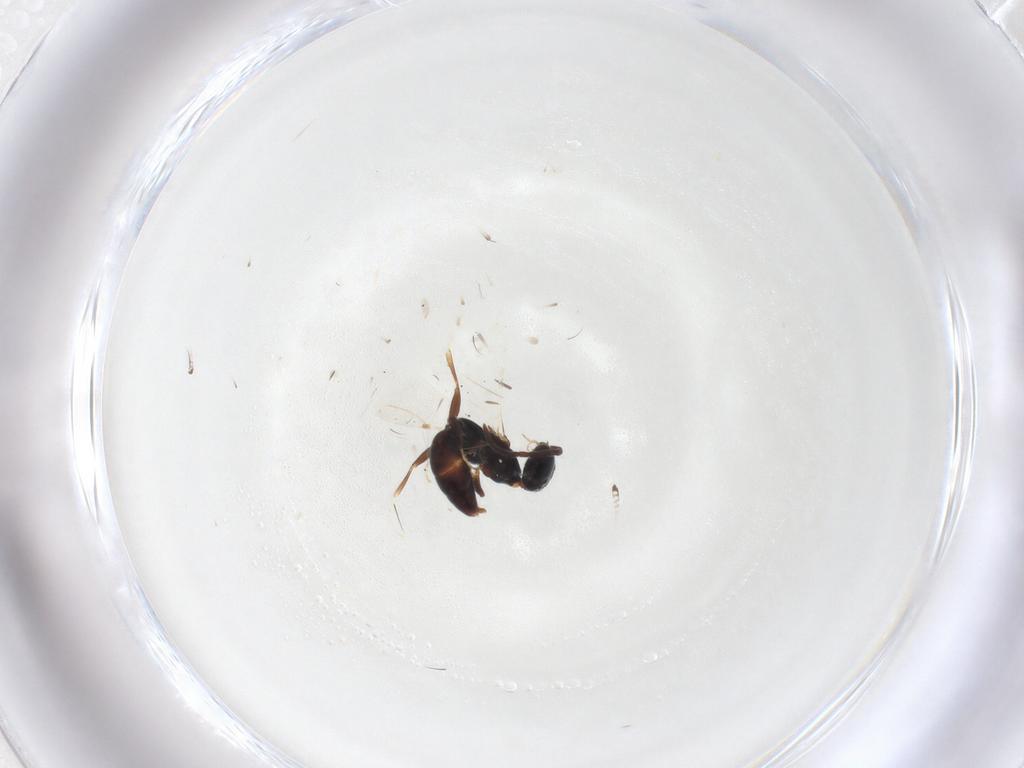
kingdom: Animalia
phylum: Arthropoda
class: Insecta
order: Hymenoptera
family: Bethylidae
